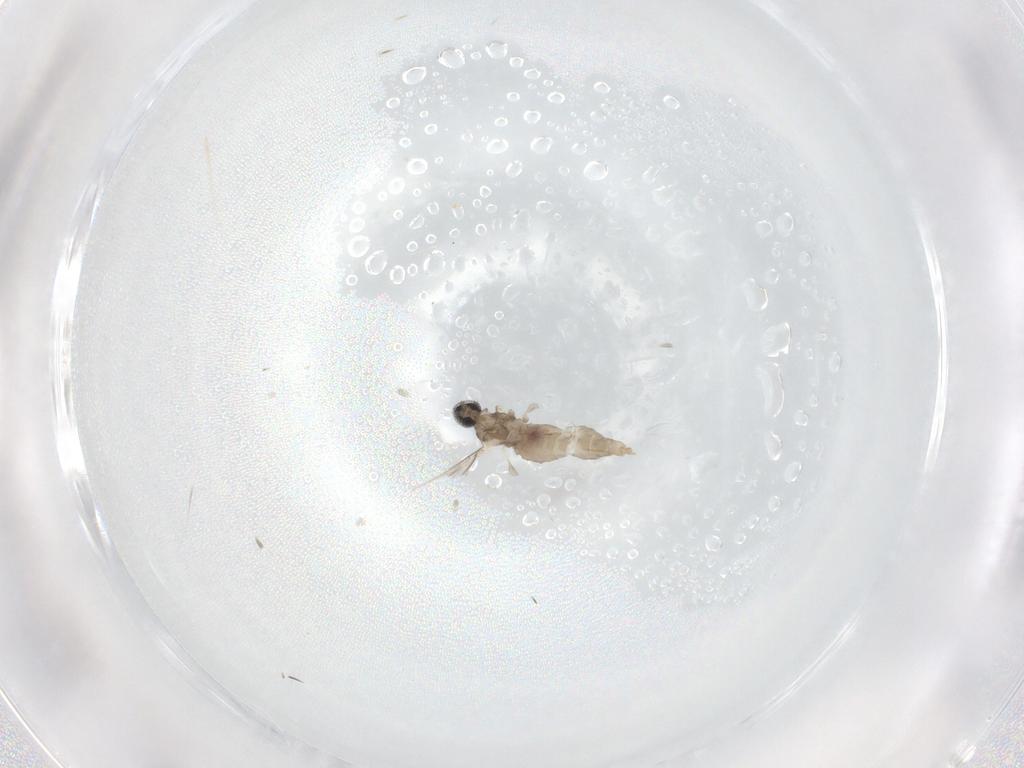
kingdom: Animalia
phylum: Arthropoda
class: Insecta
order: Diptera
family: Cecidomyiidae
